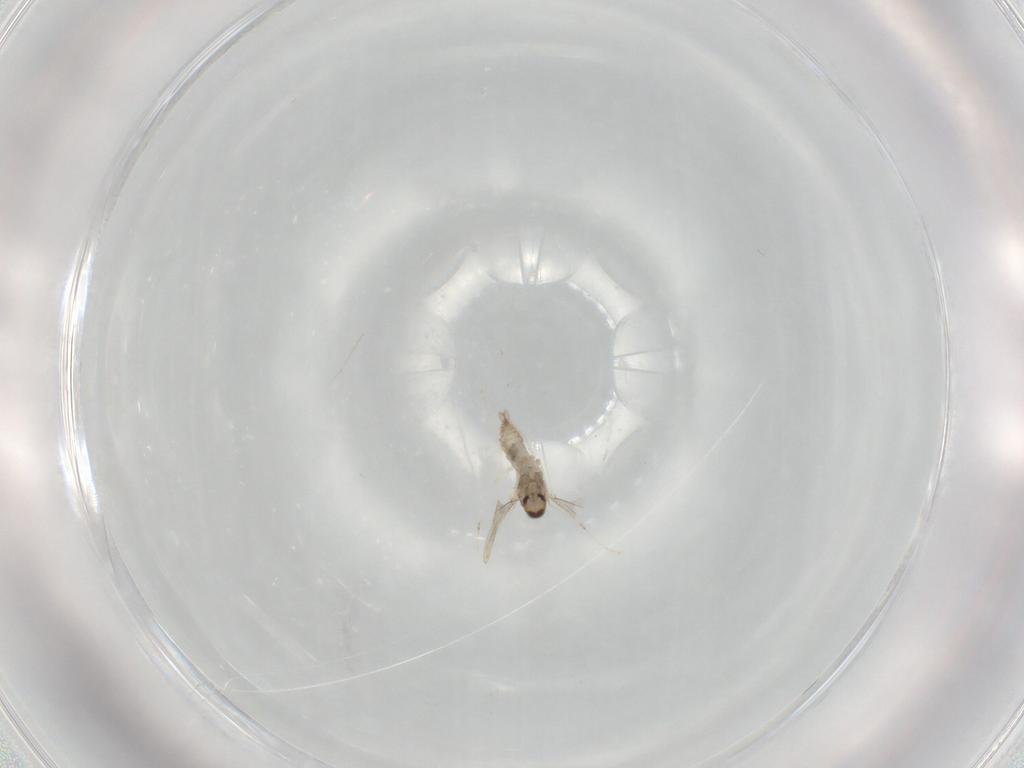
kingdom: Animalia
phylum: Arthropoda
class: Insecta
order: Diptera
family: Cecidomyiidae
